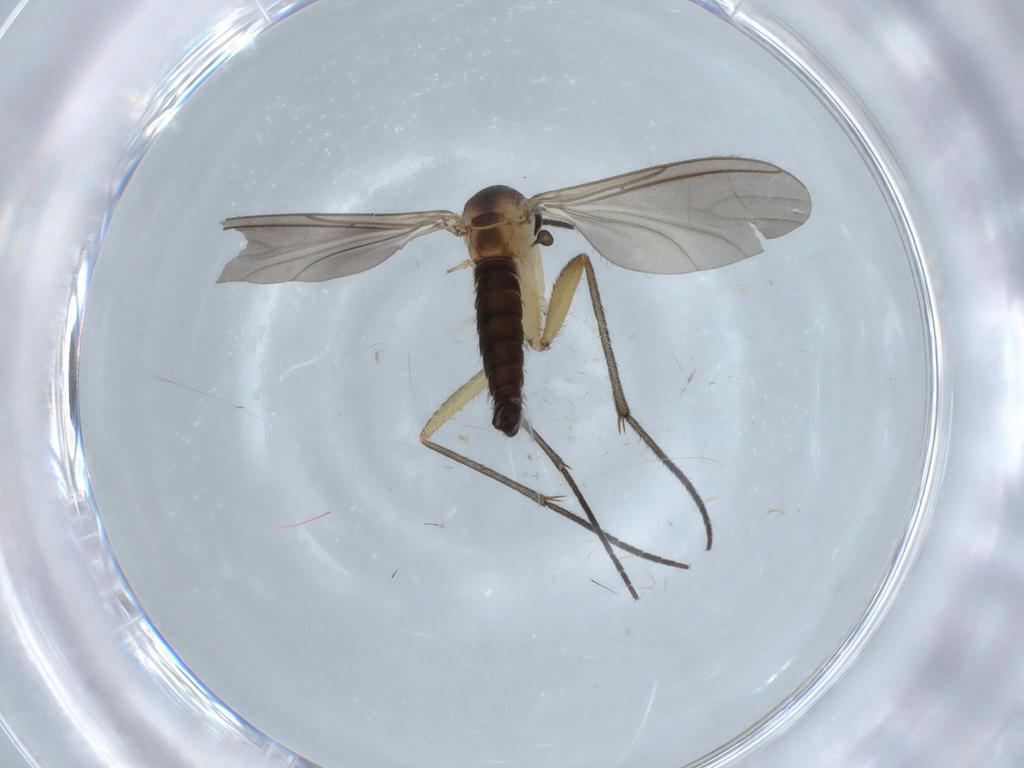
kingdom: Animalia
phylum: Arthropoda
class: Insecta
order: Diptera
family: Sciaridae
